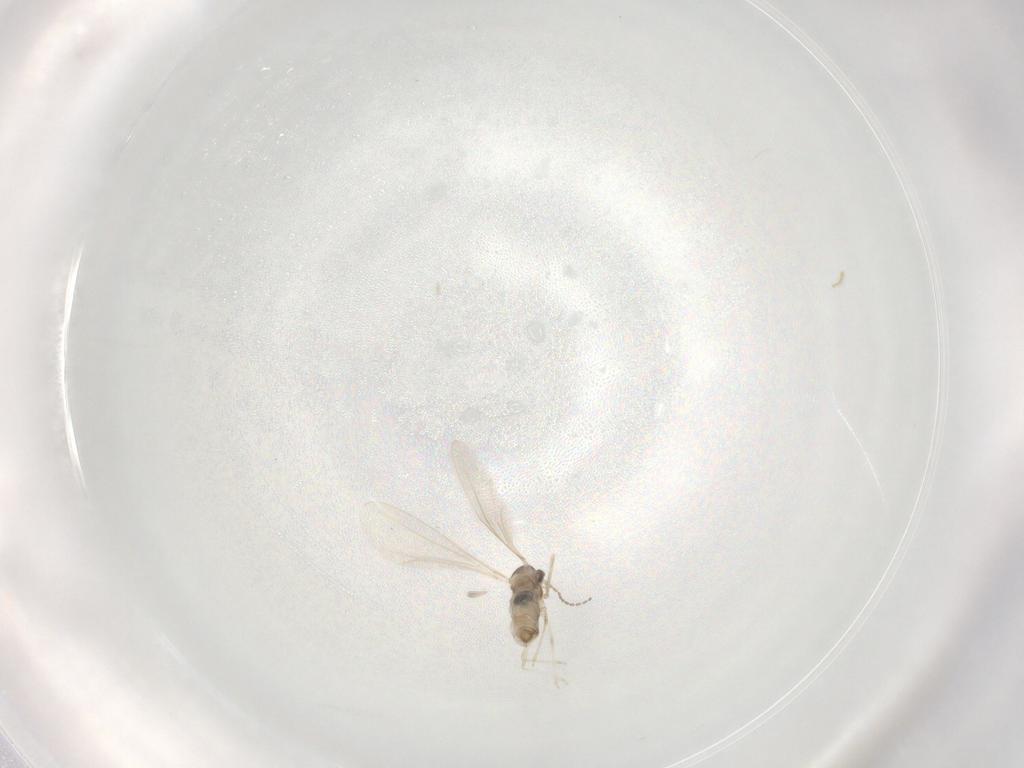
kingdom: Animalia
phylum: Arthropoda
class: Insecta
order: Diptera
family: Cecidomyiidae
